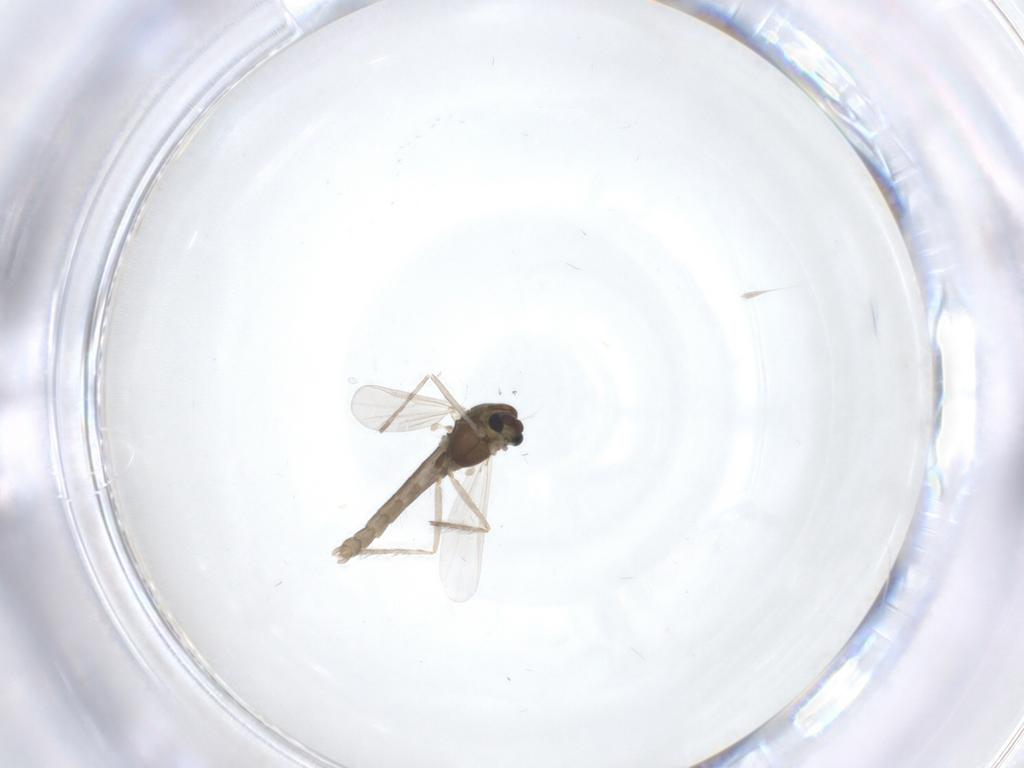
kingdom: Animalia
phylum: Arthropoda
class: Insecta
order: Diptera
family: Chironomidae
